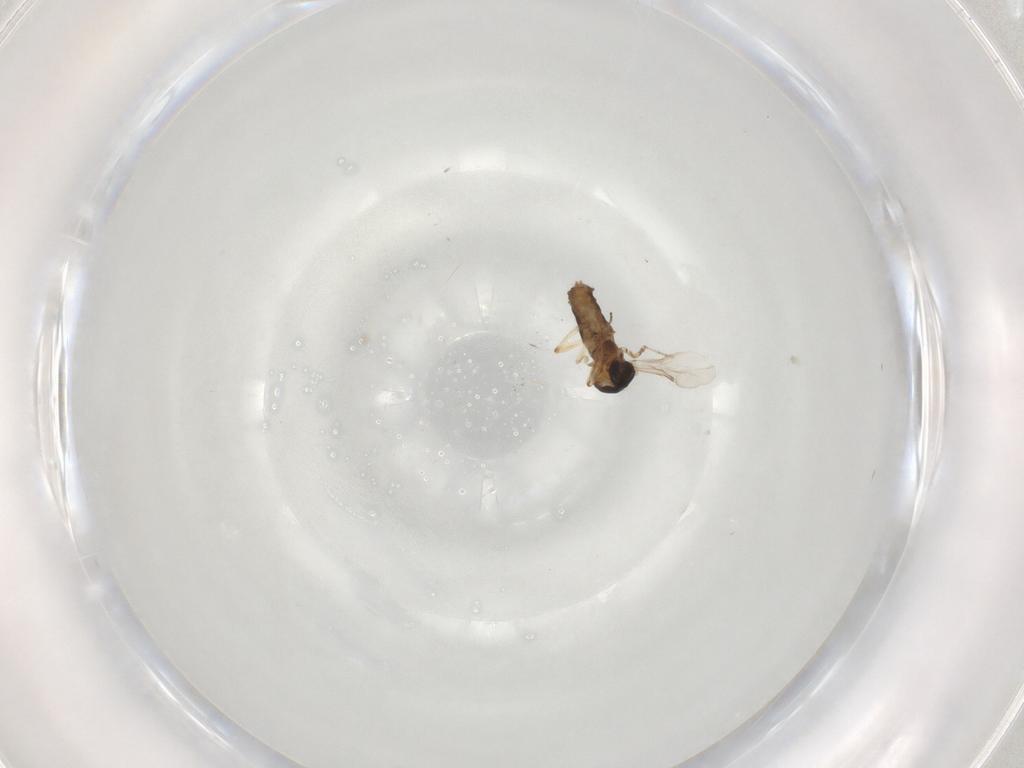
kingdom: Animalia
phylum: Arthropoda
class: Insecta
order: Diptera
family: Ceratopogonidae
